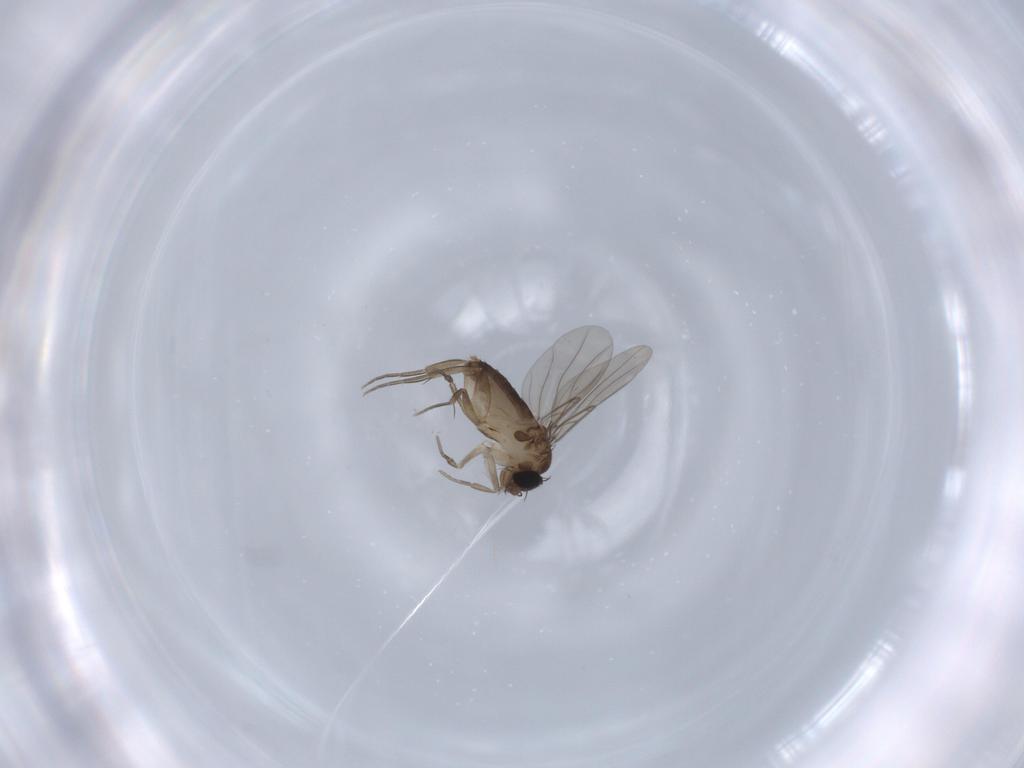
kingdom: Animalia
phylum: Arthropoda
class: Insecta
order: Diptera
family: Phoridae
